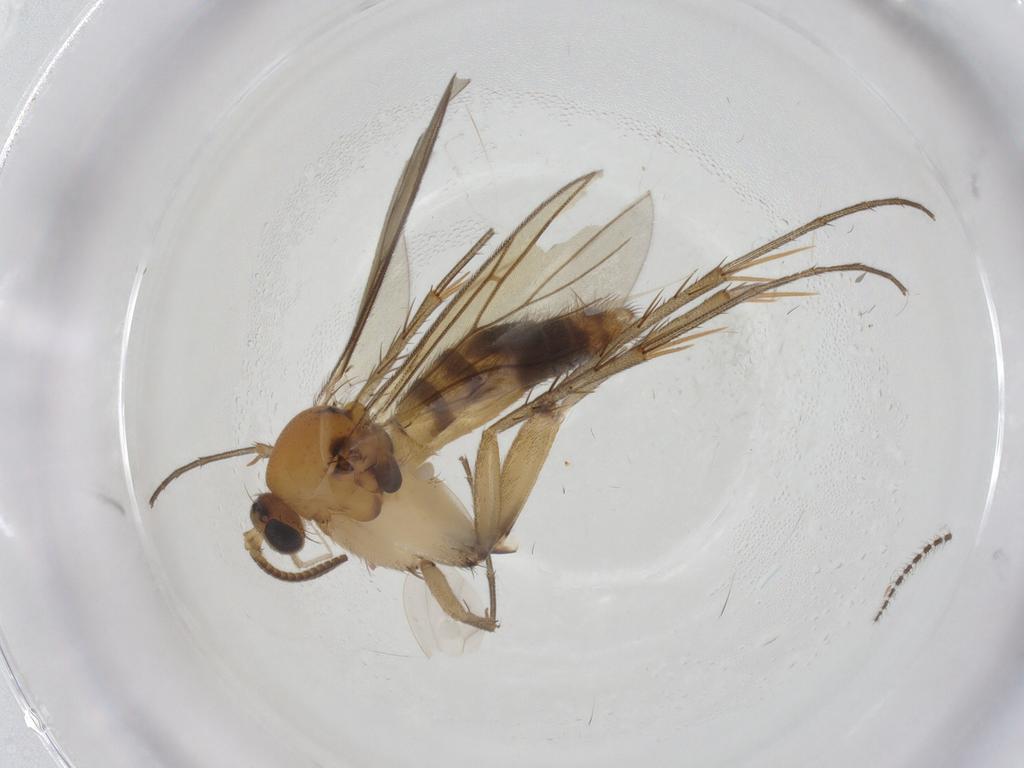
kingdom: Animalia
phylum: Arthropoda
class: Insecta
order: Diptera
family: Mycetophilidae
